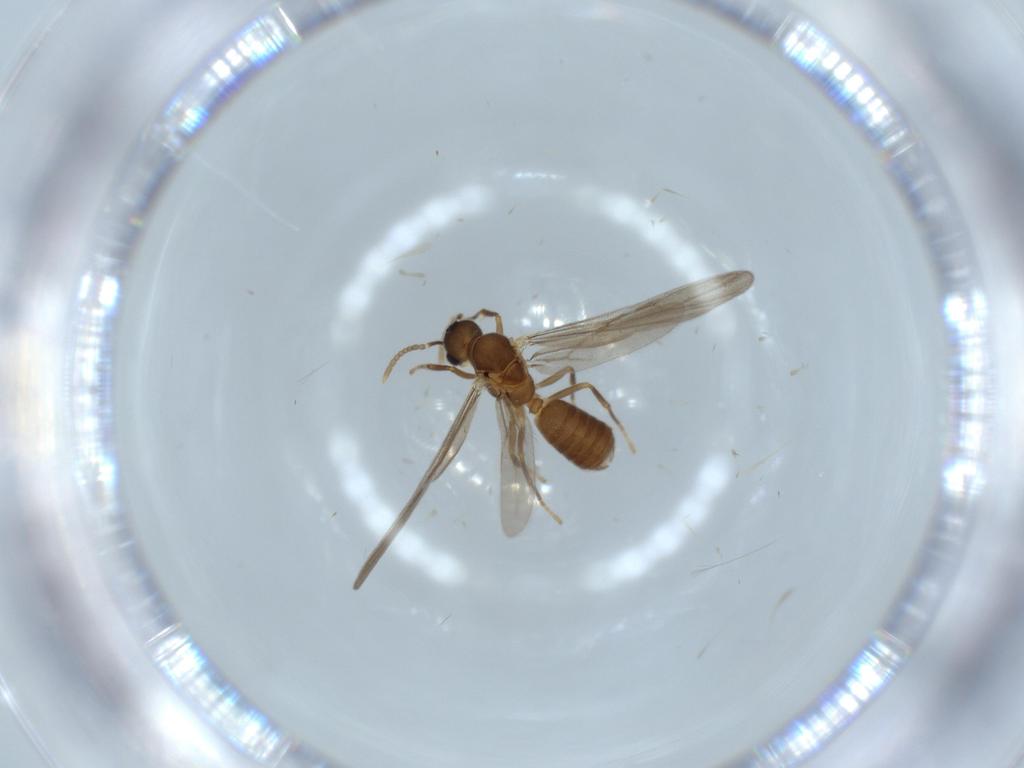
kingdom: Animalia
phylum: Arthropoda
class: Insecta
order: Hymenoptera
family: Formicidae
